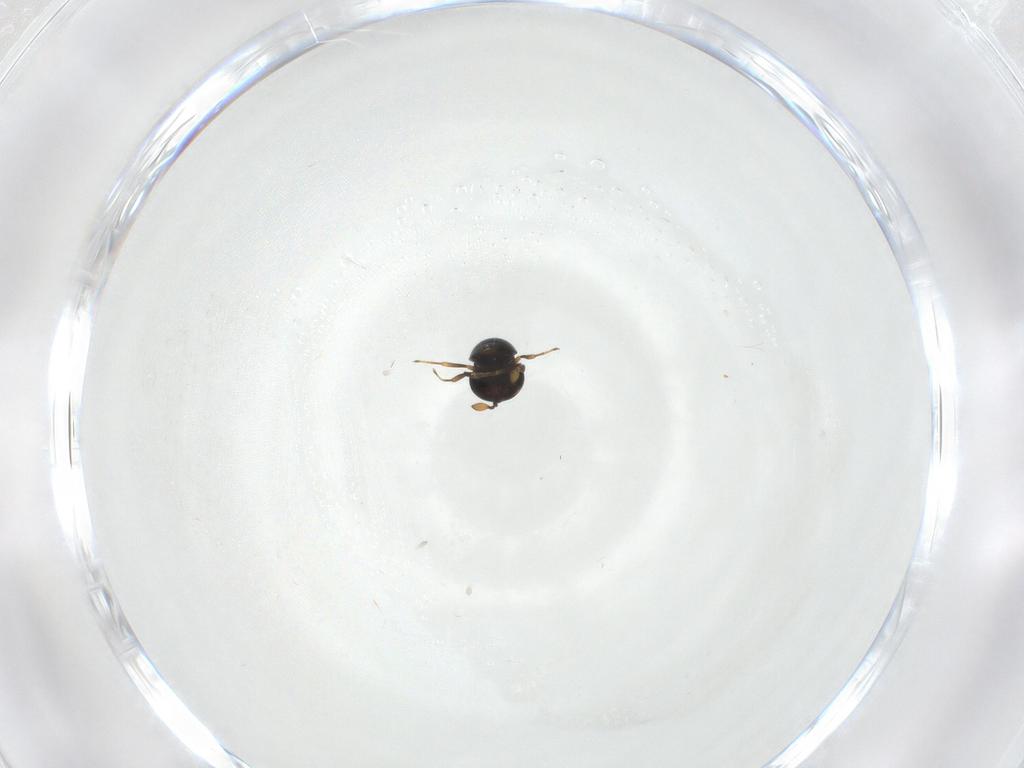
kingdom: Animalia
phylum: Arthropoda
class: Insecta
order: Hymenoptera
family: Scelionidae
